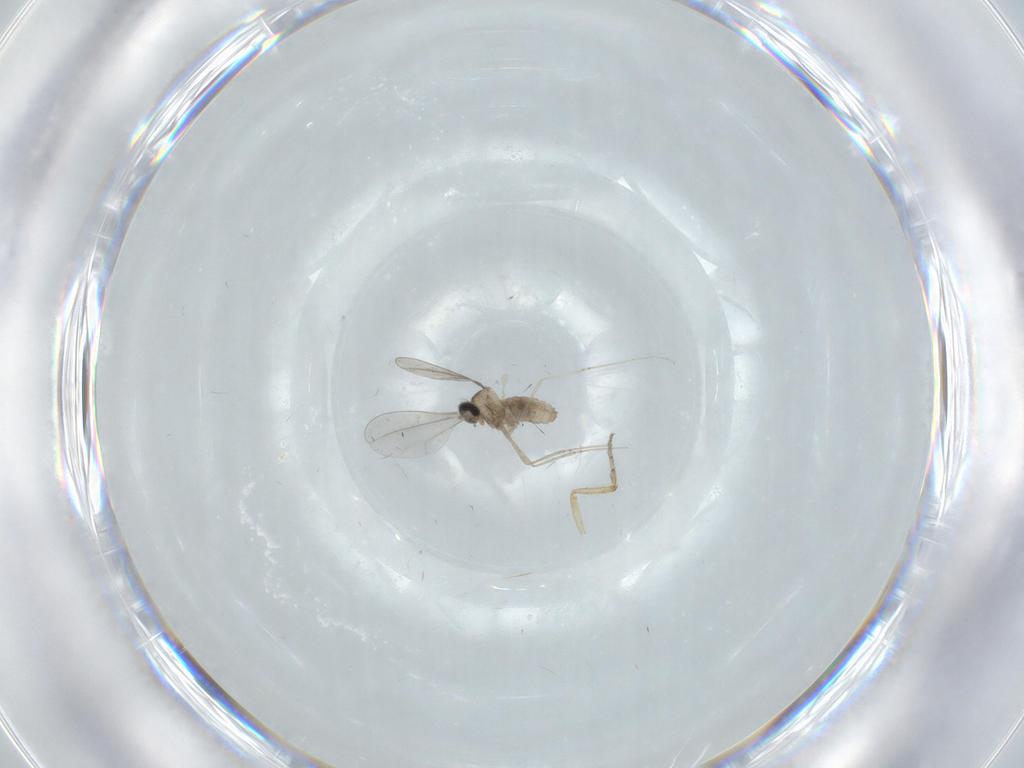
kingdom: Animalia
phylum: Arthropoda
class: Insecta
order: Diptera
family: Ceratopogonidae
